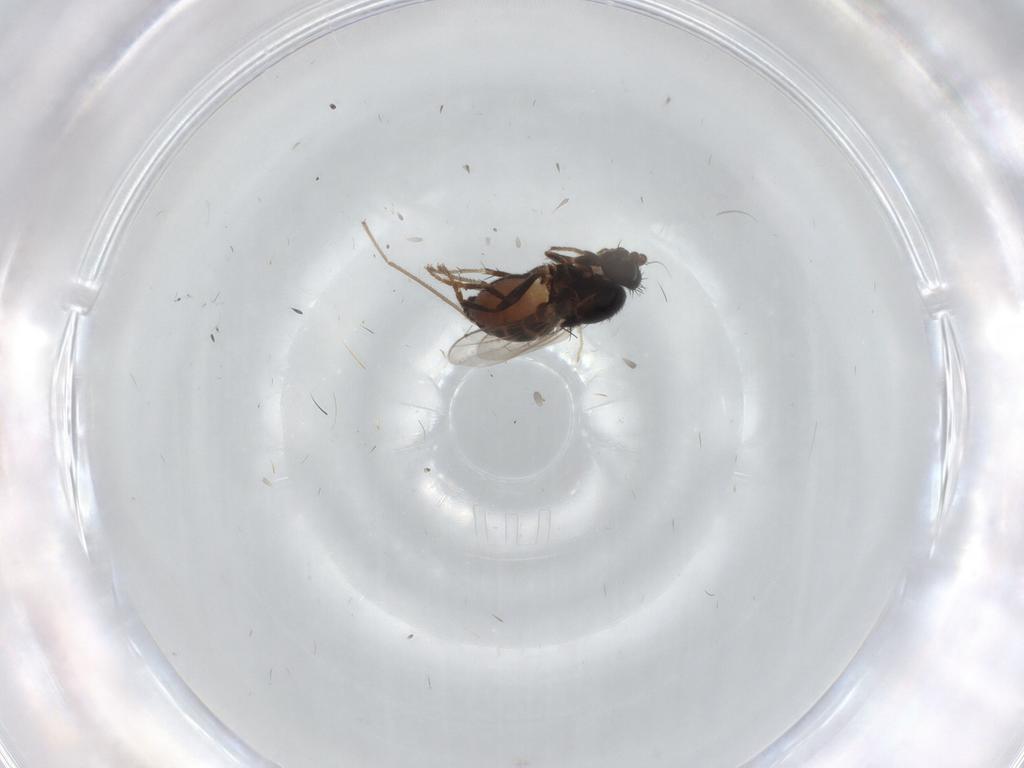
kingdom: Animalia
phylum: Arthropoda
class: Insecta
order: Diptera
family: Sphaeroceridae
